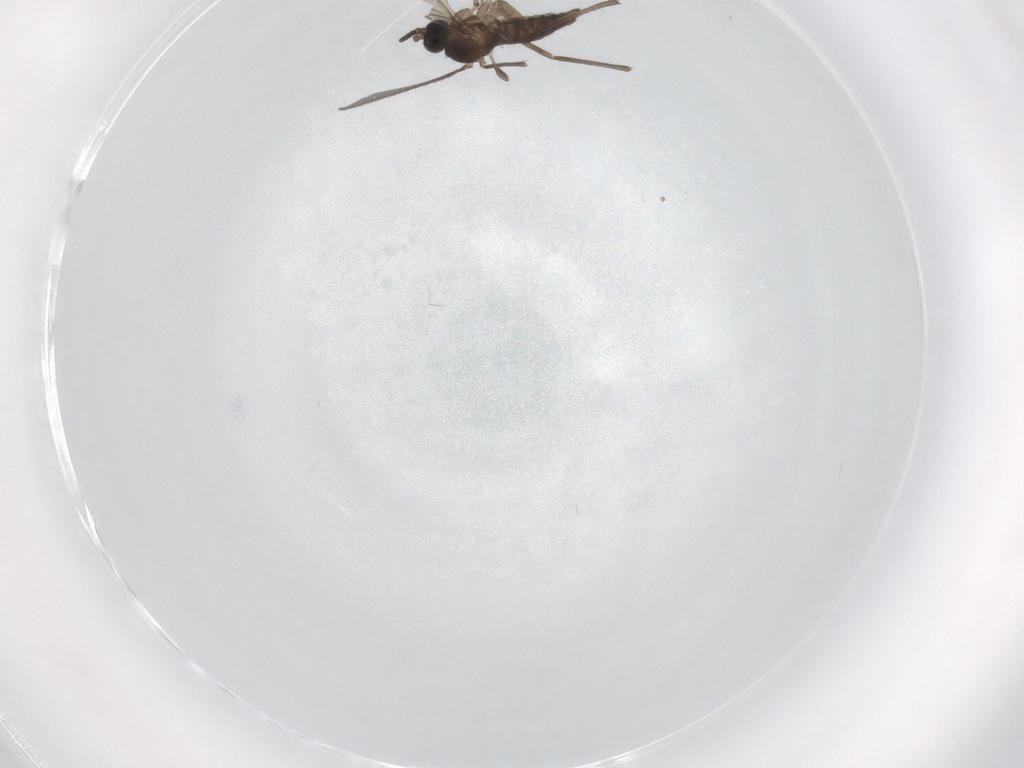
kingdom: Animalia
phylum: Arthropoda
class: Insecta
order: Diptera
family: Sciaridae
